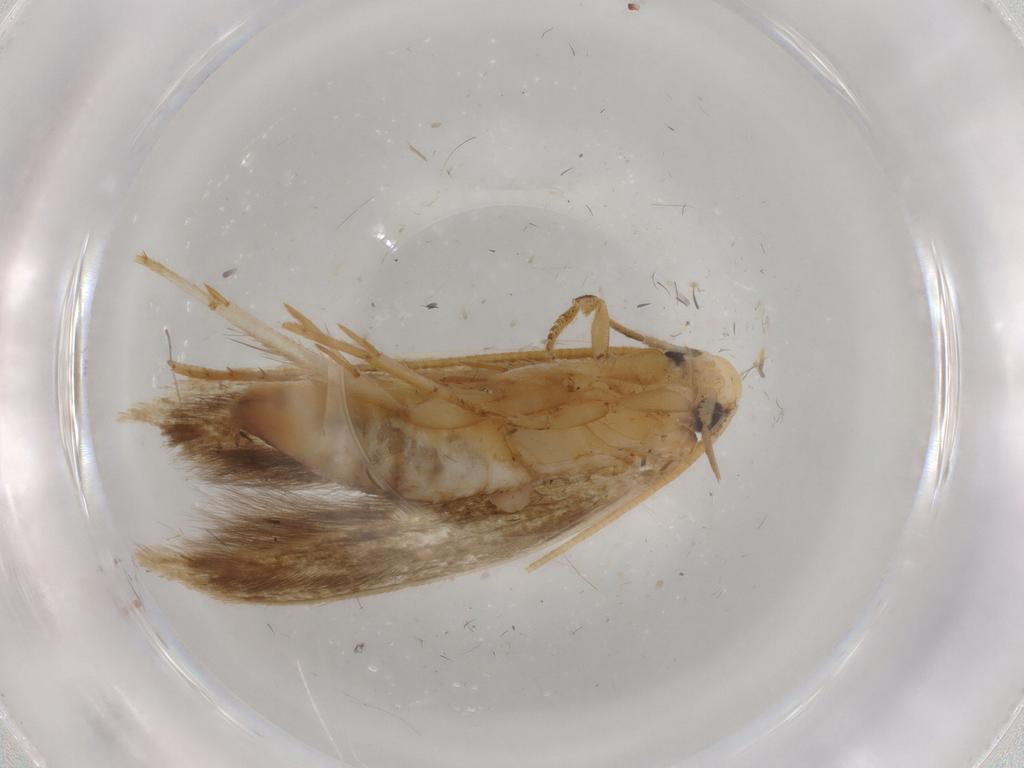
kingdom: Animalia
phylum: Arthropoda
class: Insecta
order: Lepidoptera
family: Tineidae
